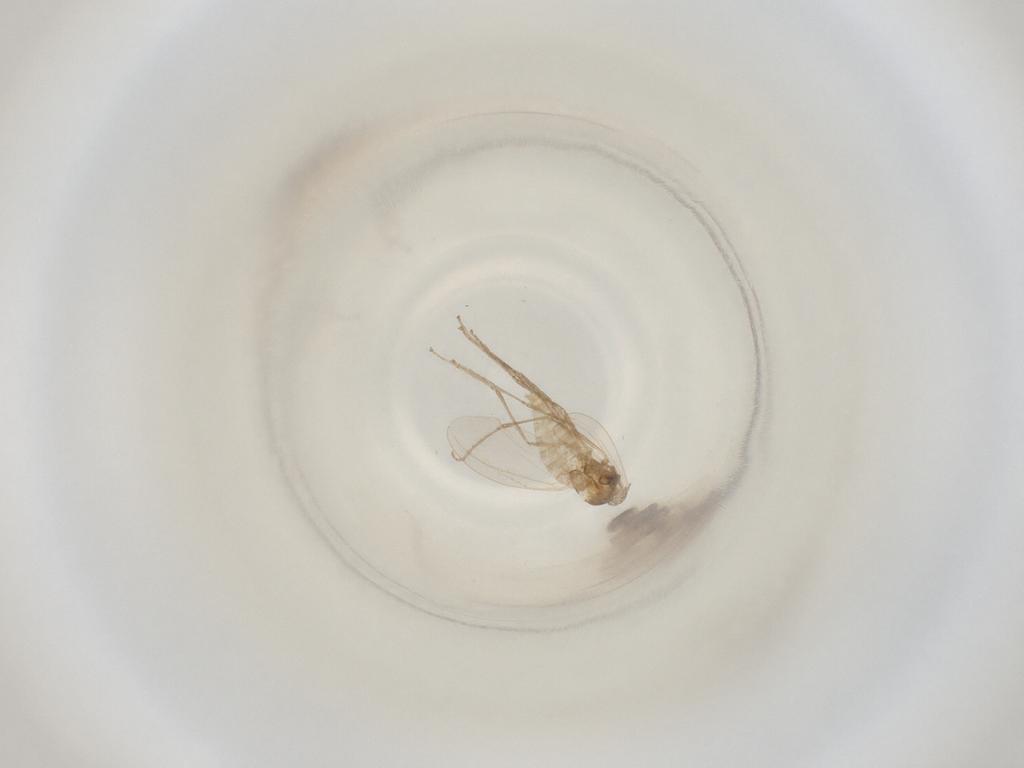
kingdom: Animalia
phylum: Arthropoda
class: Insecta
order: Diptera
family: Cecidomyiidae
